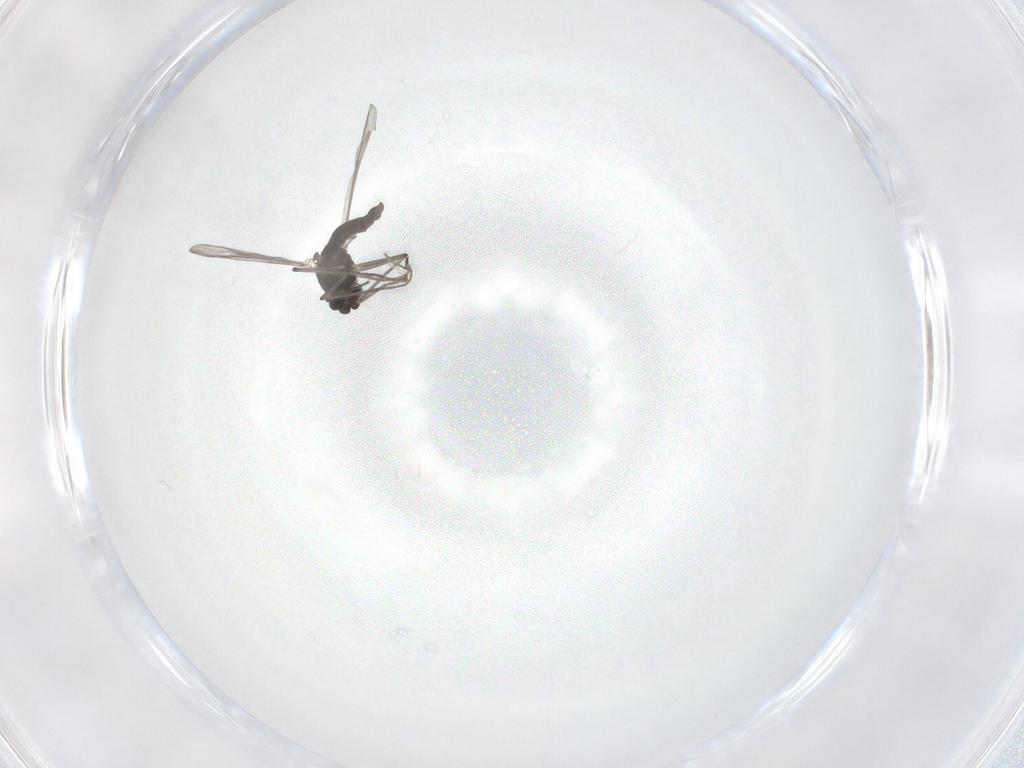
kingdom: Animalia
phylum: Arthropoda
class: Insecta
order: Diptera
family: Chironomidae
